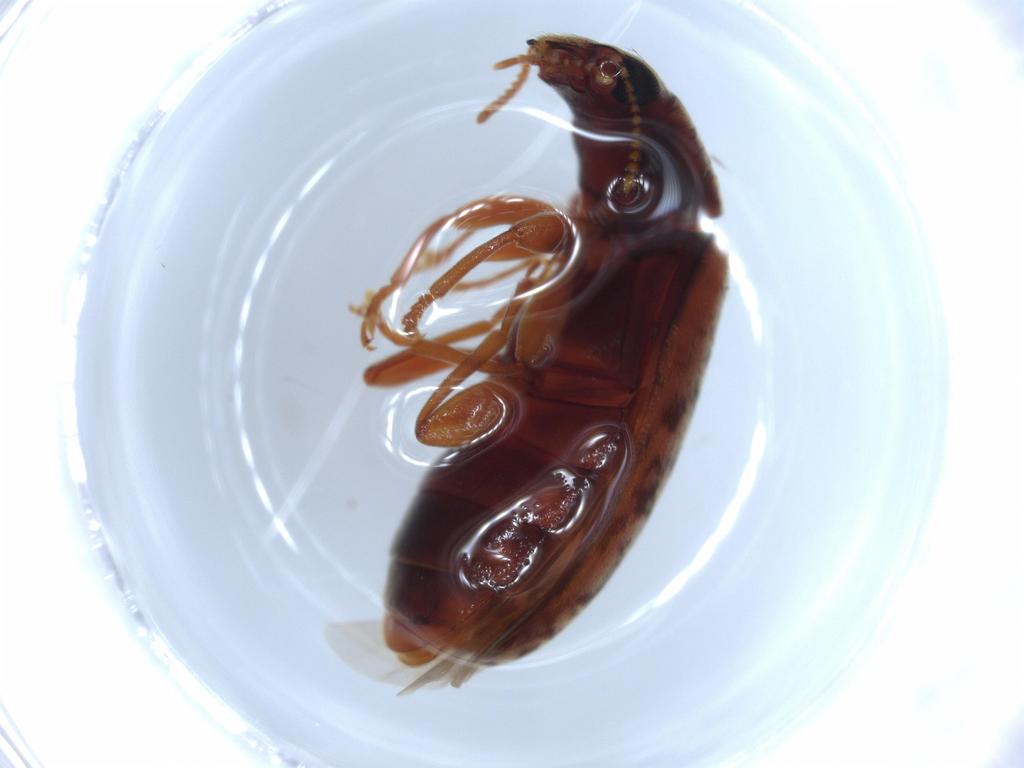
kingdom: Animalia
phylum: Arthropoda
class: Insecta
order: Coleoptera
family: Mycteridae
